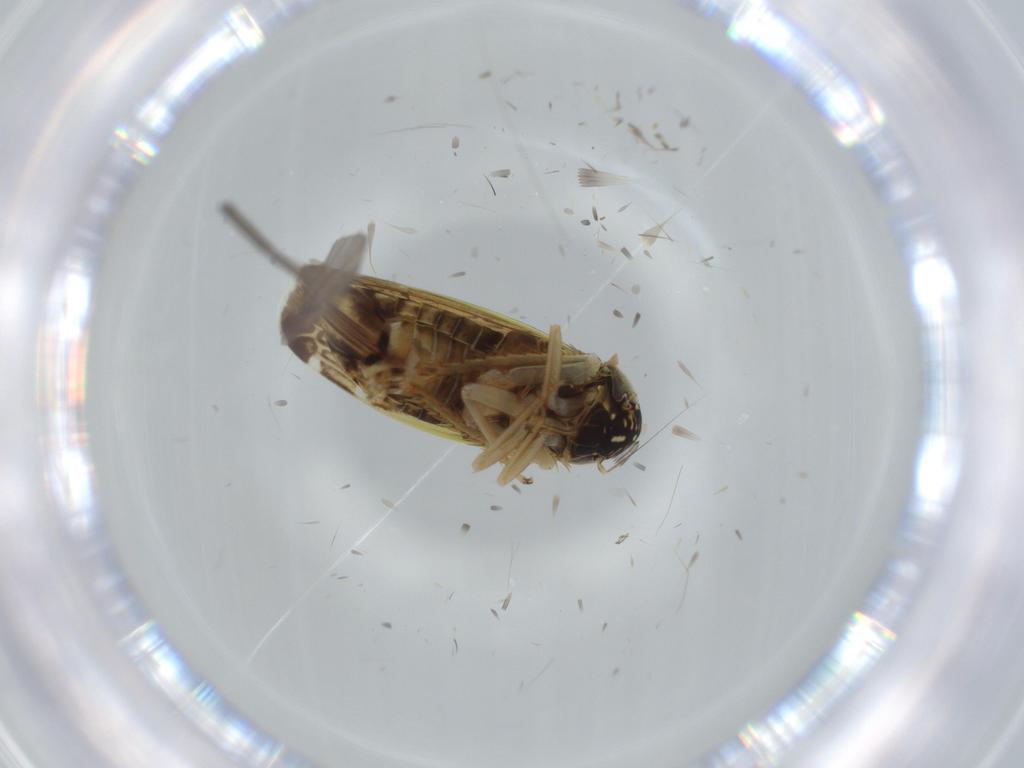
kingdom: Animalia
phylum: Arthropoda
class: Insecta
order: Hemiptera
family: Cicadellidae
